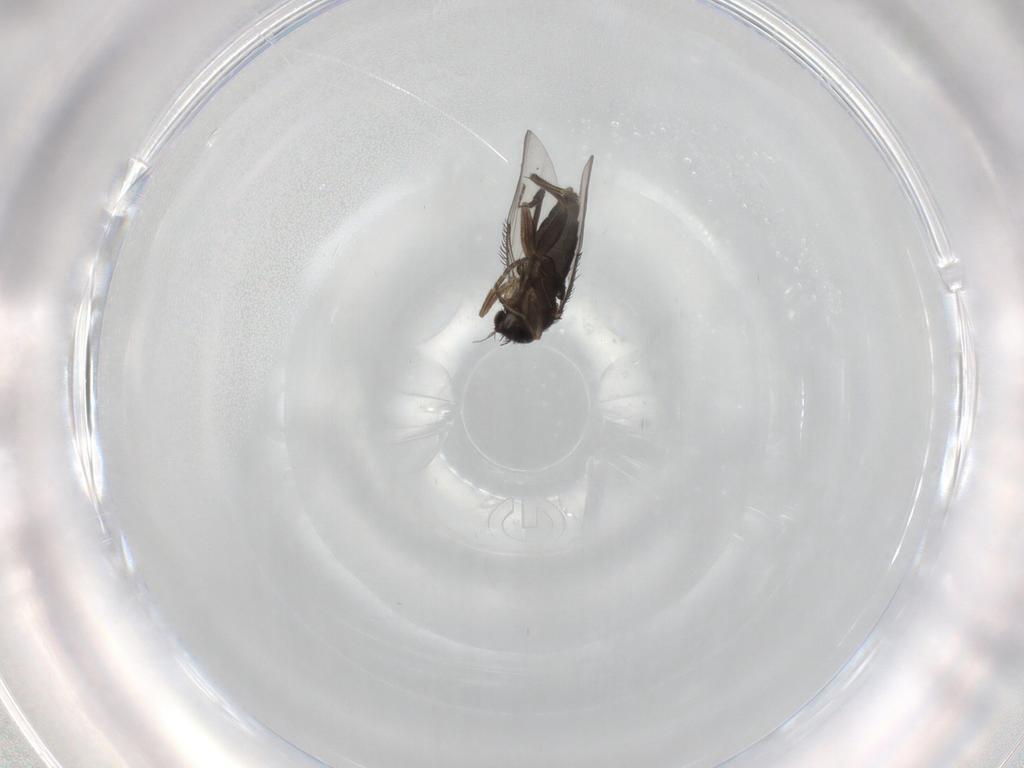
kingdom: Animalia
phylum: Arthropoda
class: Insecta
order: Diptera
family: Phoridae
